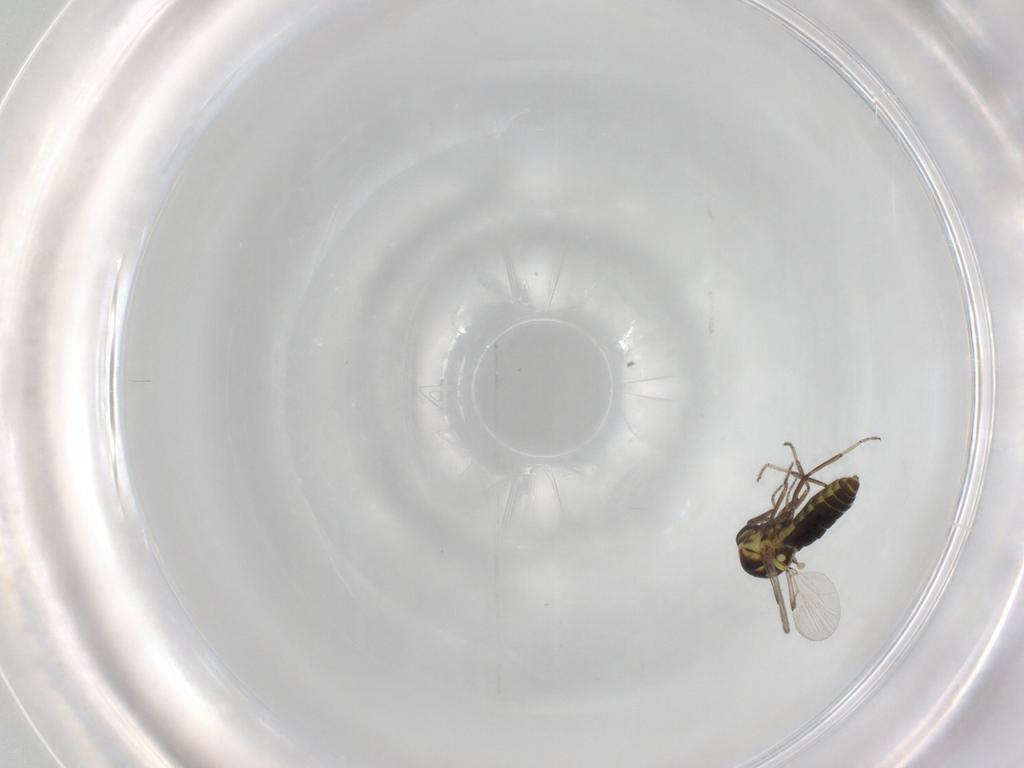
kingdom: Animalia
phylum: Arthropoda
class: Insecta
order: Diptera
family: Ceratopogonidae
